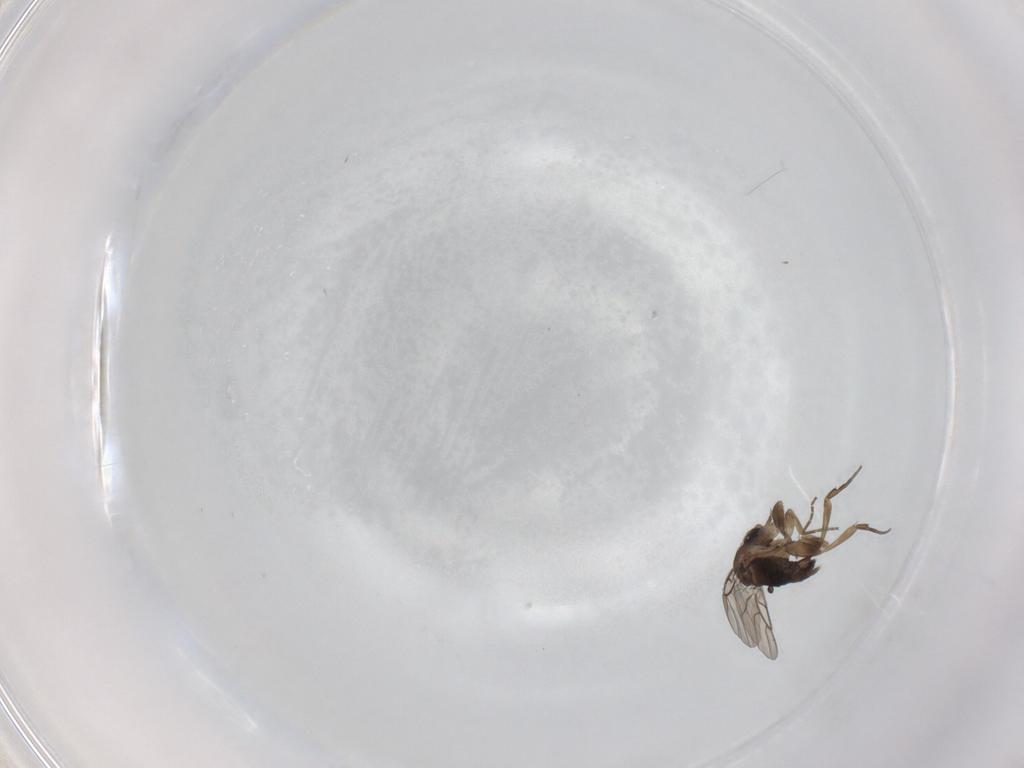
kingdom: Animalia
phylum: Arthropoda
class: Insecta
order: Diptera
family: Phoridae
